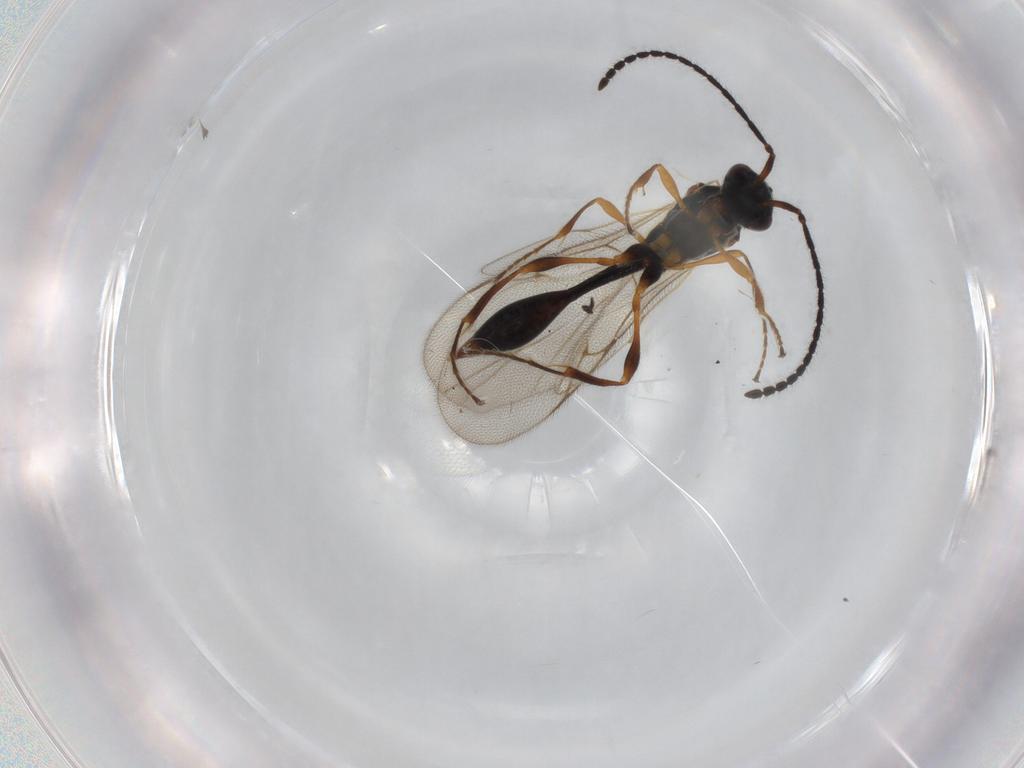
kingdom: Animalia
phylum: Arthropoda
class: Insecta
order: Hymenoptera
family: Diapriidae
